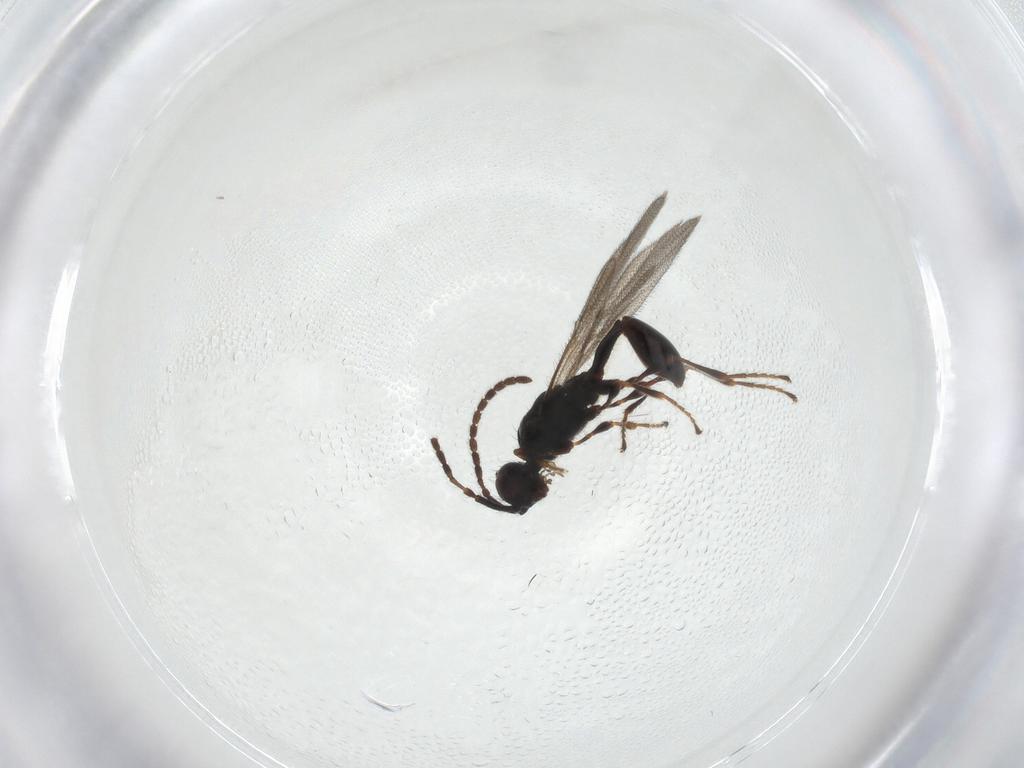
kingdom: Animalia
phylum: Arthropoda
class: Insecta
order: Hymenoptera
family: Diapriidae
